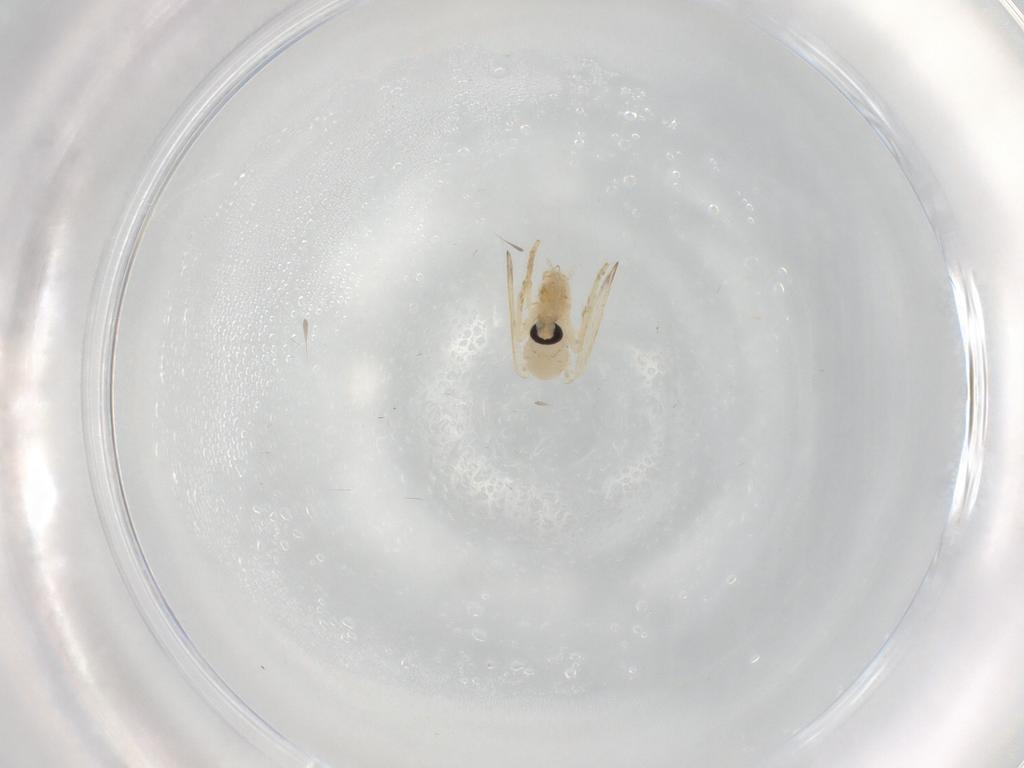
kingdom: Animalia
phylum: Arthropoda
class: Insecta
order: Diptera
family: Psychodidae
